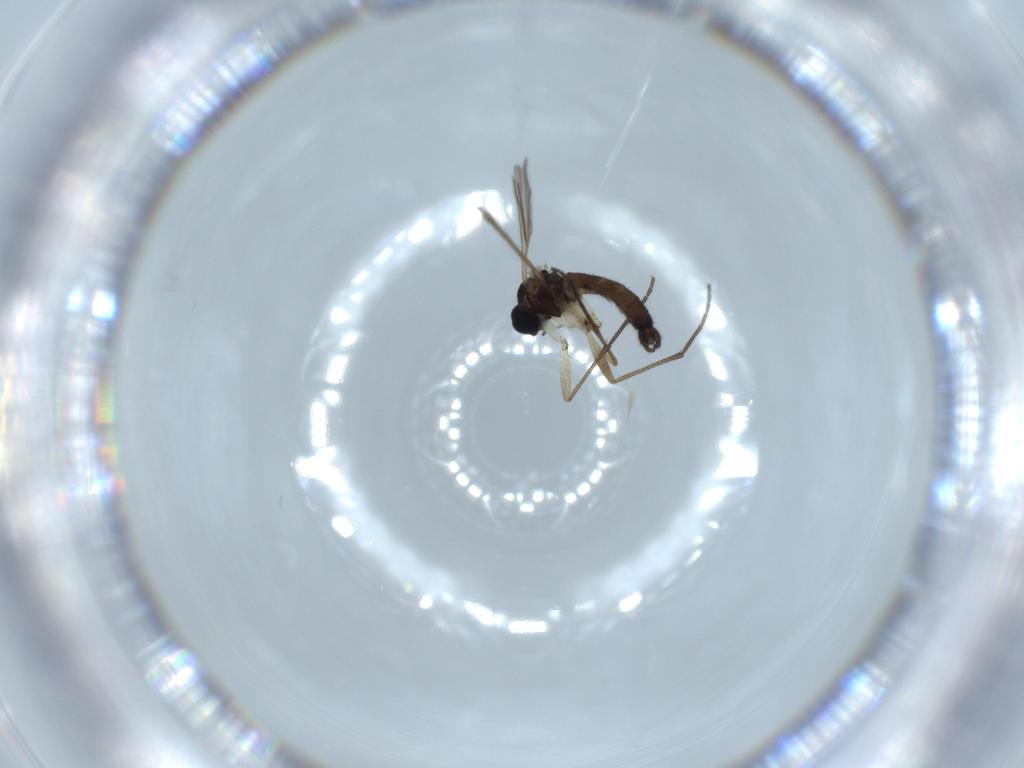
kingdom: Animalia
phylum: Arthropoda
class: Insecta
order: Diptera
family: Sciaridae
